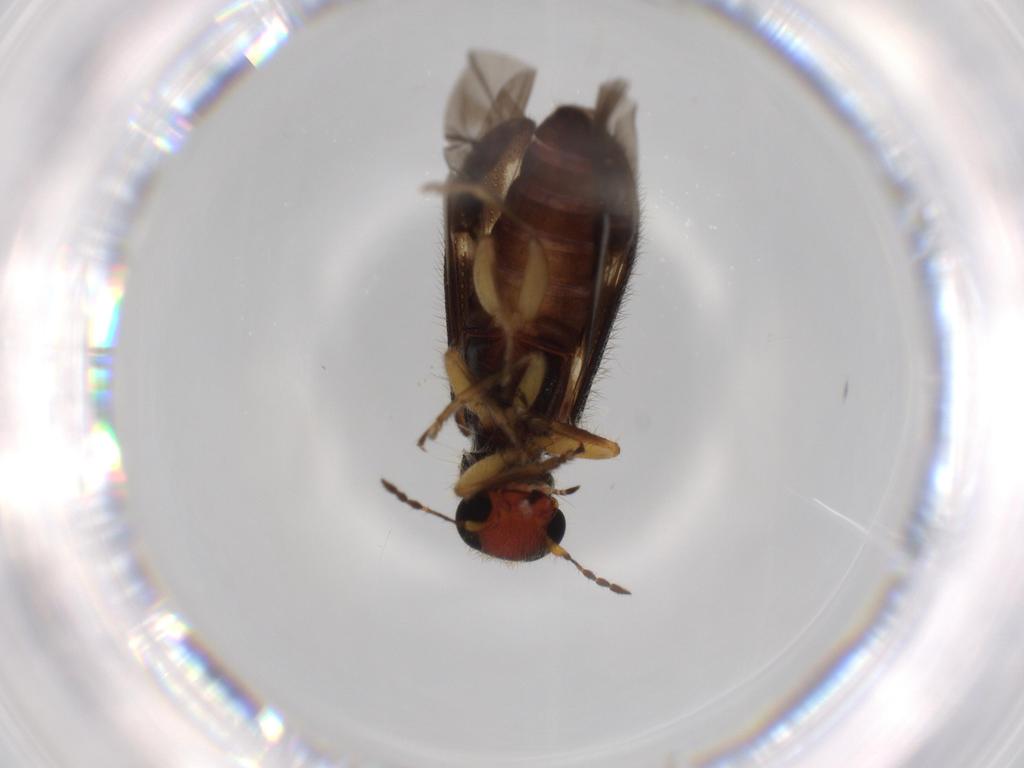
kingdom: Animalia
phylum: Arthropoda
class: Insecta
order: Coleoptera
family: Cleridae
